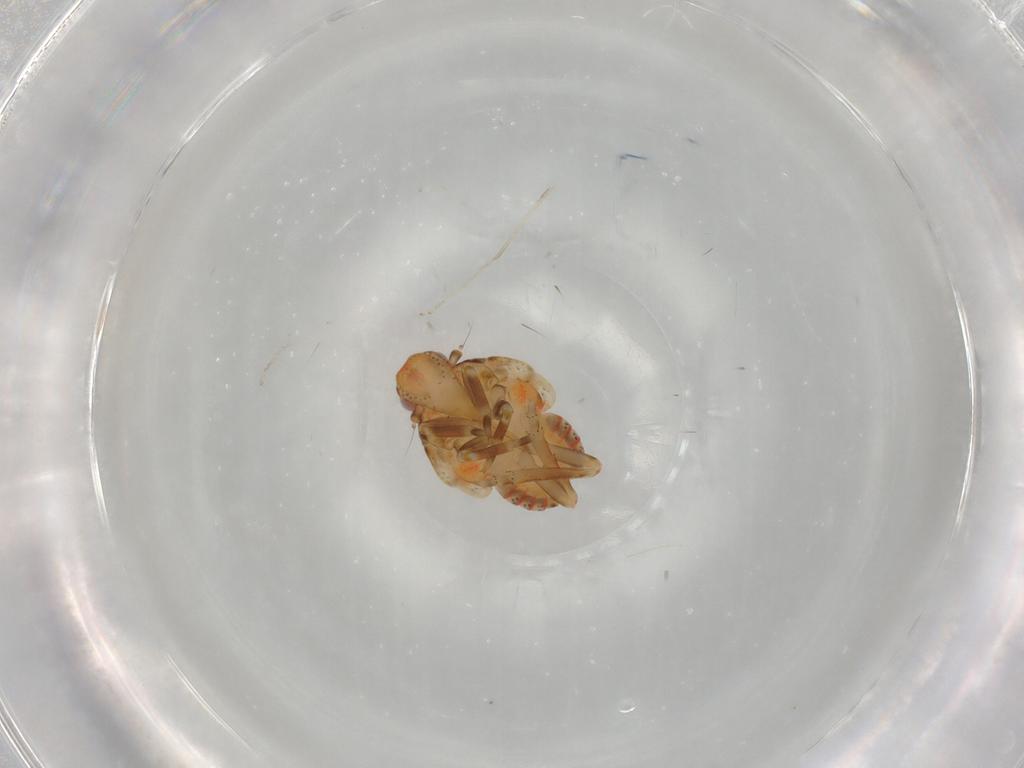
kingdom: Animalia
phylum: Arthropoda
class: Insecta
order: Hemiptera
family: Flatidae
